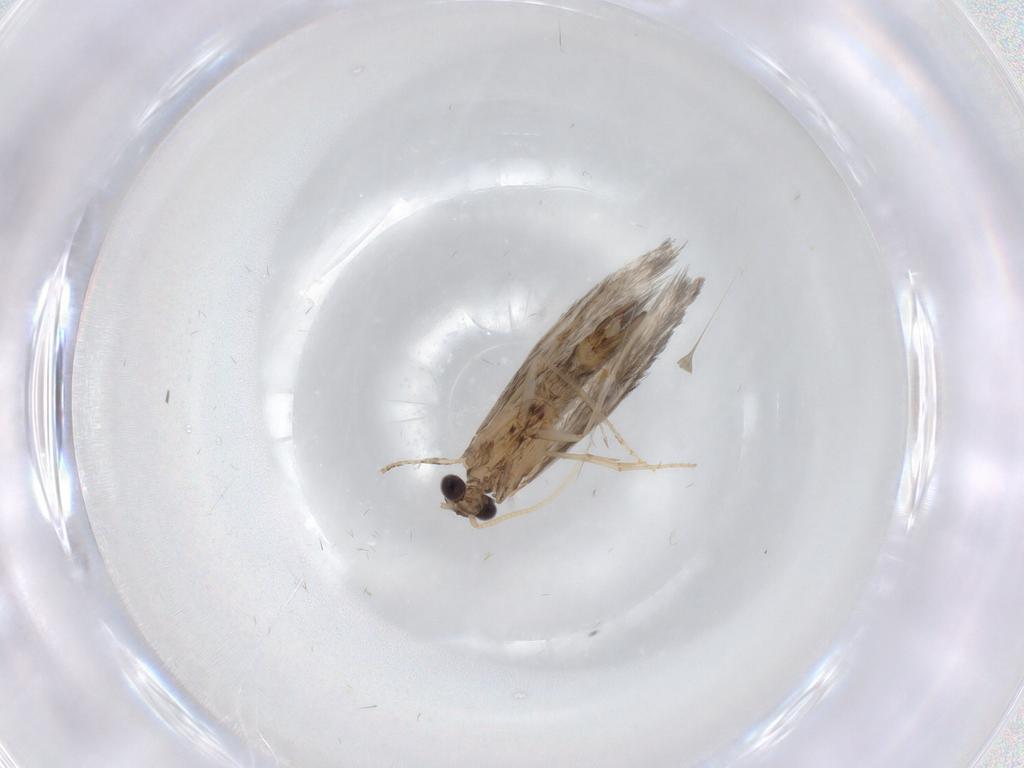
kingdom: Animalia
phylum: Arthropoda
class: Insecta
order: Trichoptera
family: Hydroptilidae
